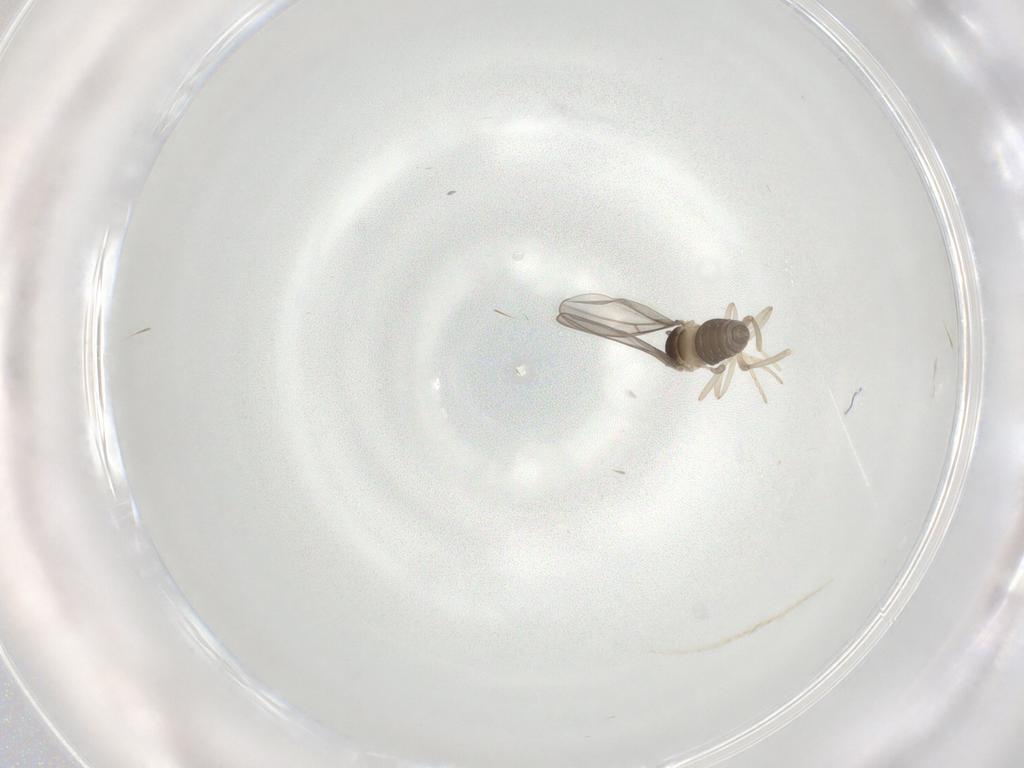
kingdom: Animalia
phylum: Arthropoda
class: Insecta
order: Diptera
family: Cecidomyiidae
